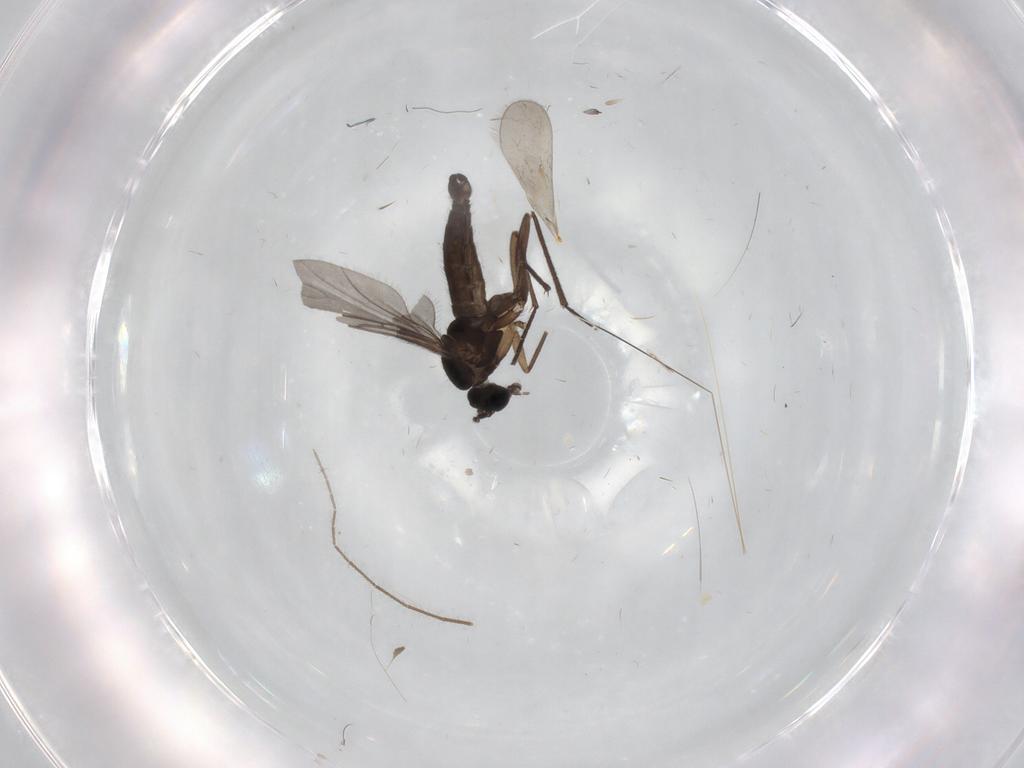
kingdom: Animalia
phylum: Arthropoda
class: Insecta
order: Diptera
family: Sciaridae
